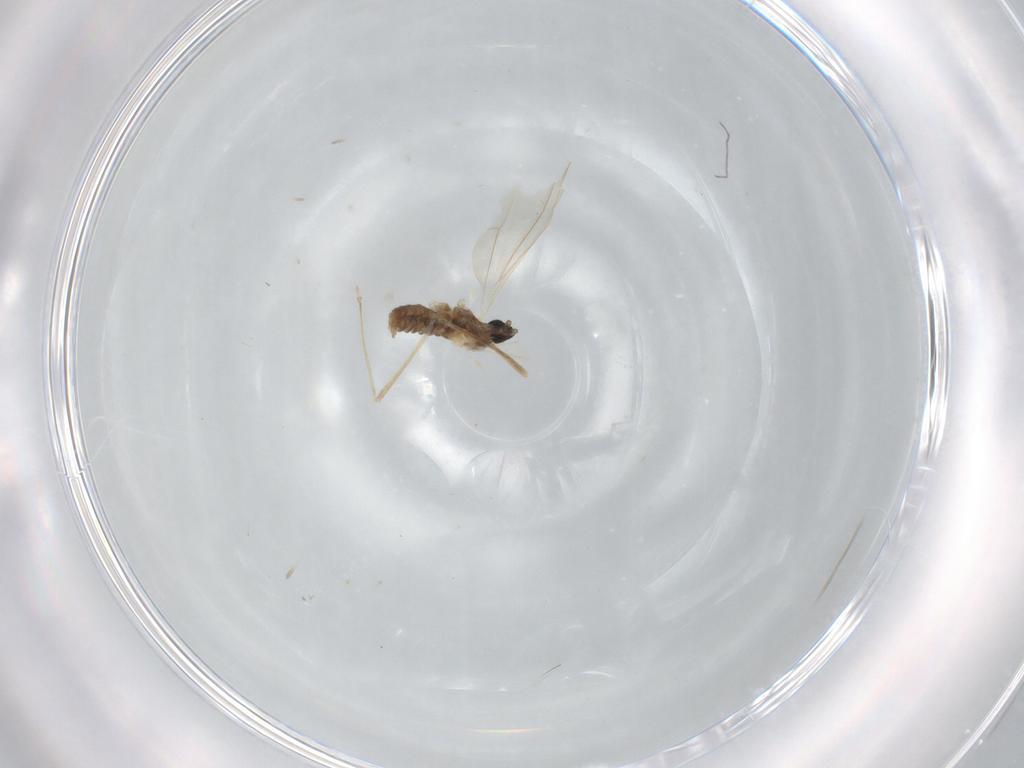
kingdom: Animalia
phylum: Arthropoda
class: Insecta
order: Diptera
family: Cecidomyiidae
